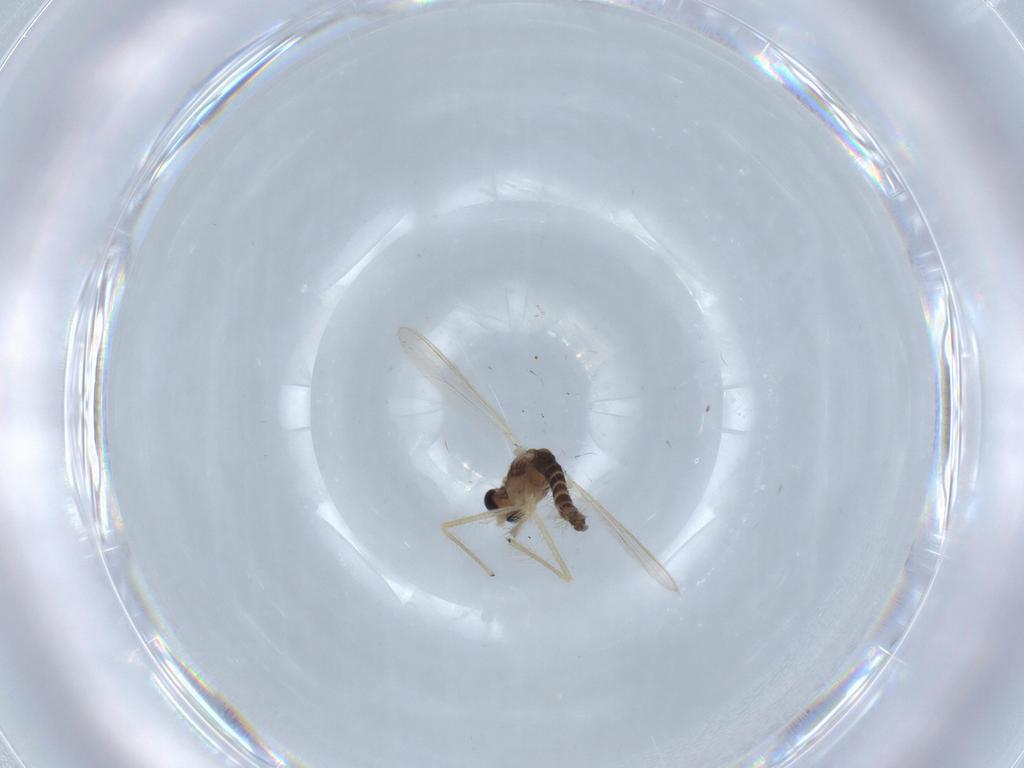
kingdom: Animalia
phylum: Arthropoda
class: Insecta
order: Diptera
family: Chironomidae
